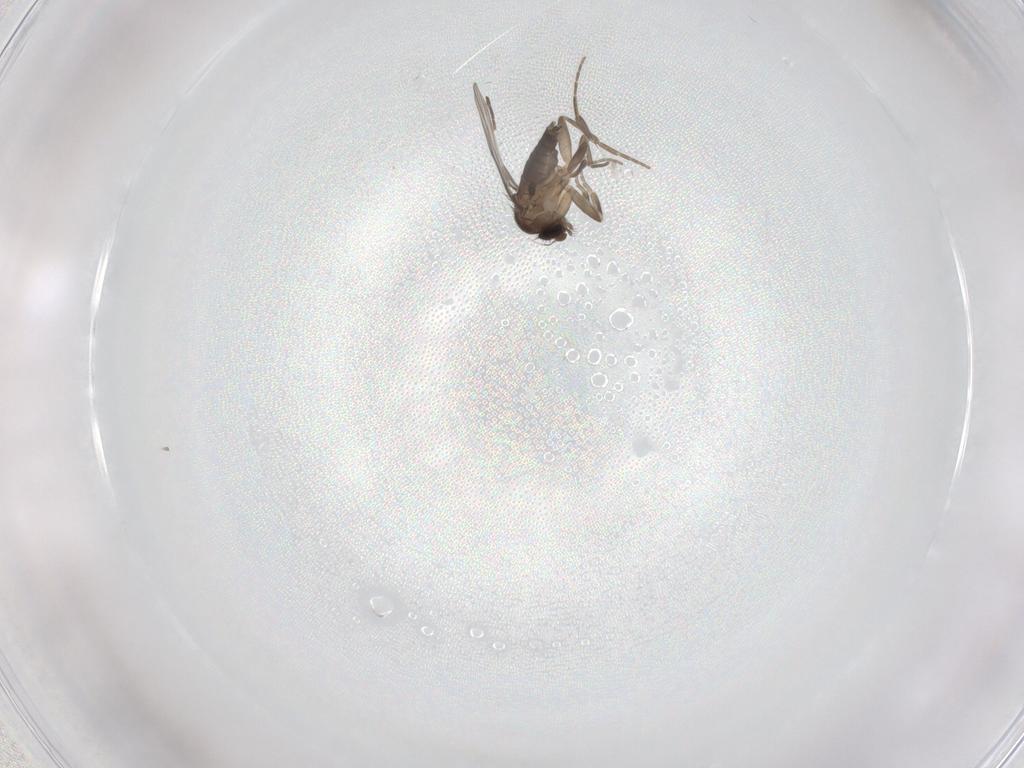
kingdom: Animalia
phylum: Arthropoda
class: Insecta
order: Diptera
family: Phoridae
